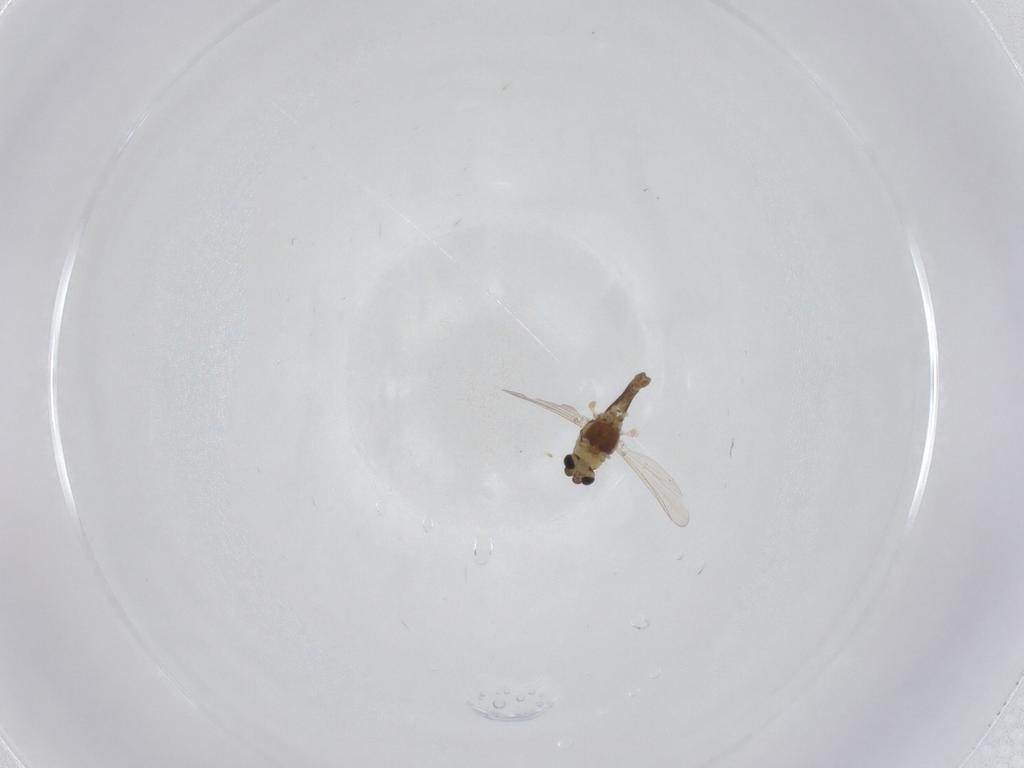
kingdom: Animalia
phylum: Arthropoda
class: Insecta
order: Diptera
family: Chironomidae
